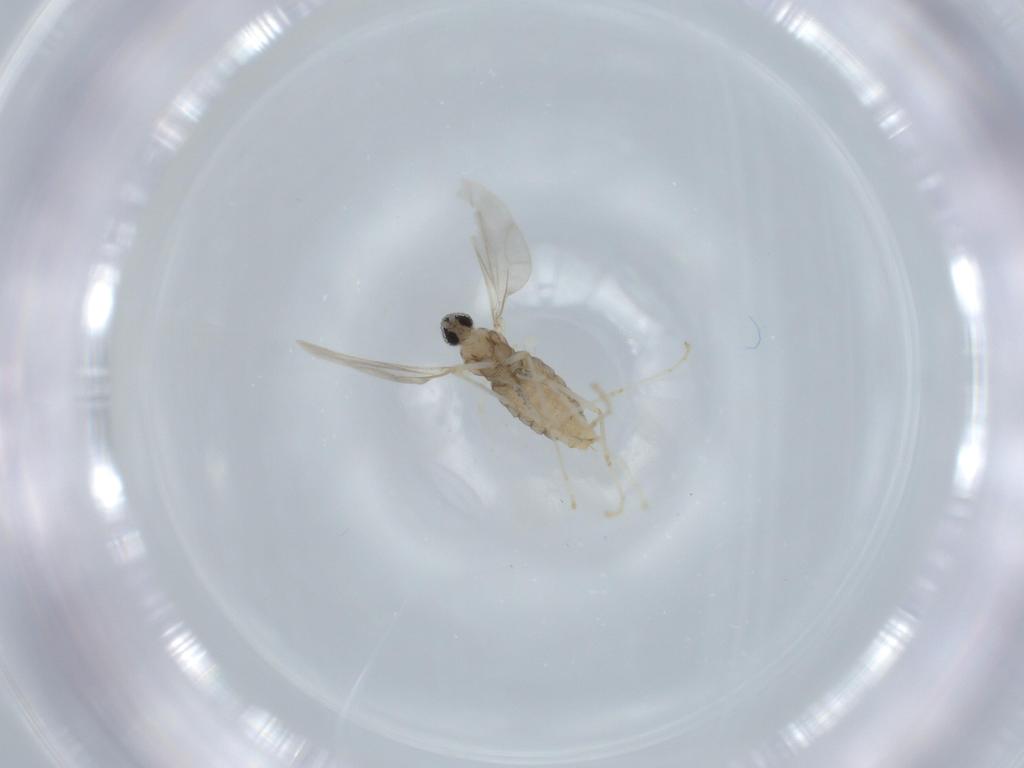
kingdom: Animalia
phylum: Arthropoda
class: Insecta
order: Diptera
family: Cecidomyiidae
